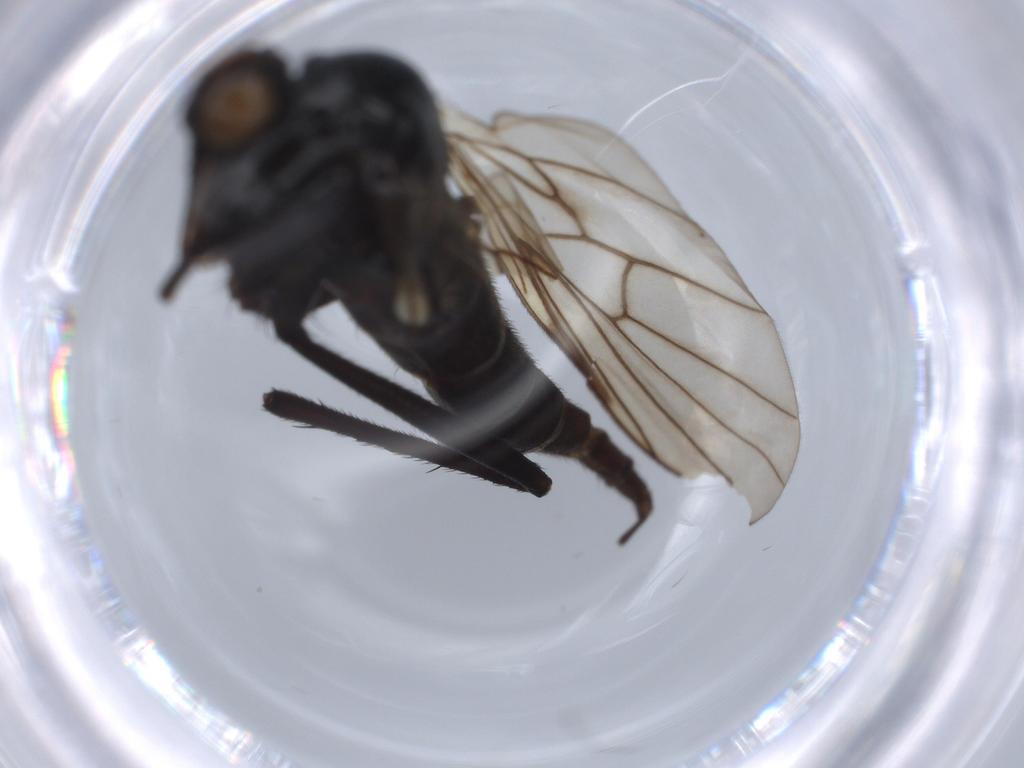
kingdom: Animalia
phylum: Arthropoda
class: Insecta
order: Diptera
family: Empididae
